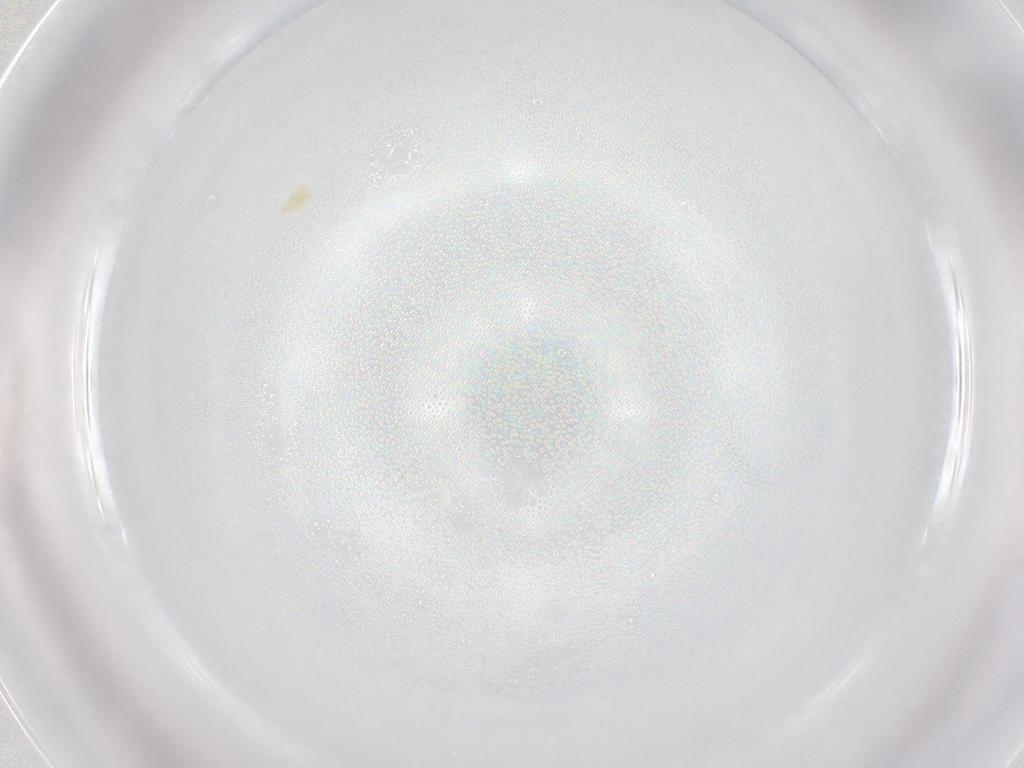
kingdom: Animalia
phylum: Arthropoda
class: Arachnida
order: Trombidiformes
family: Tetranychidae
